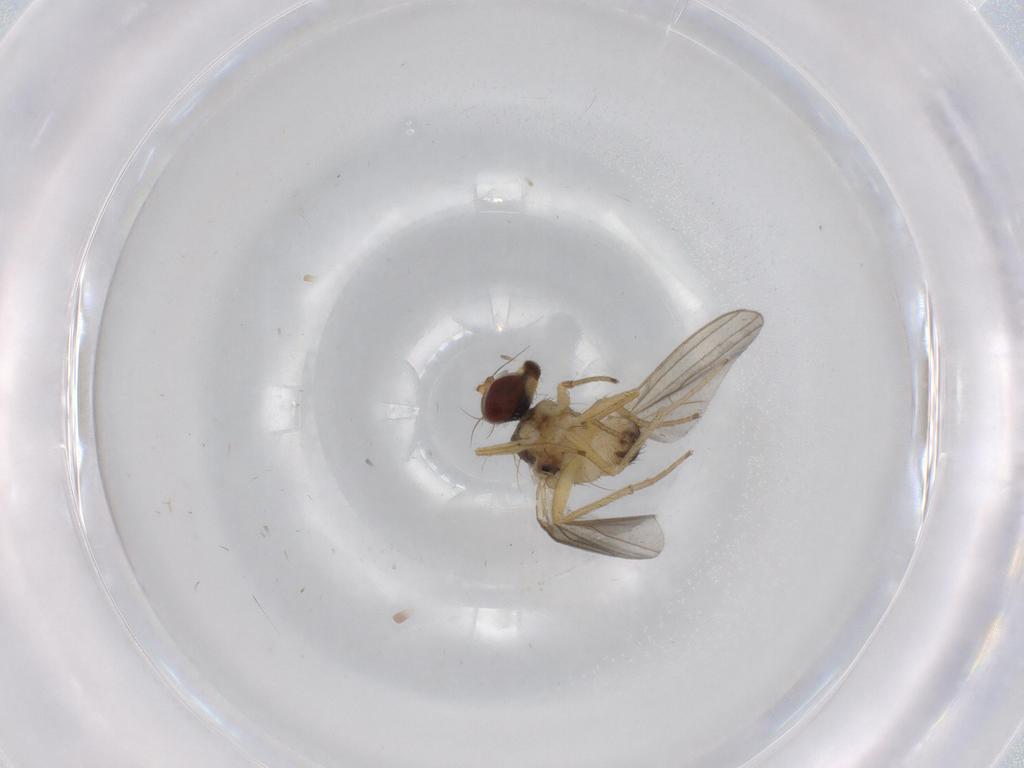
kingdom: Animalia
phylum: Arthropoda
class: Insecta
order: Diptera
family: Dolichopodidae
